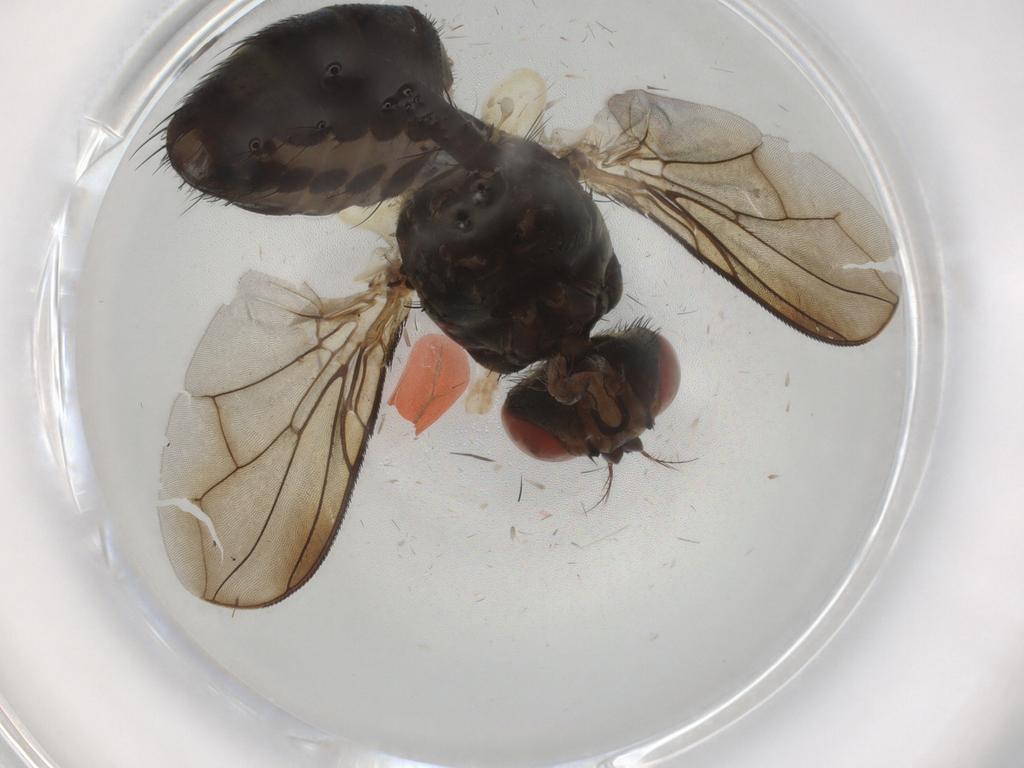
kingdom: Animalia
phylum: Arthropoda
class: Insecta
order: Diptera
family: Sarcophagidae
